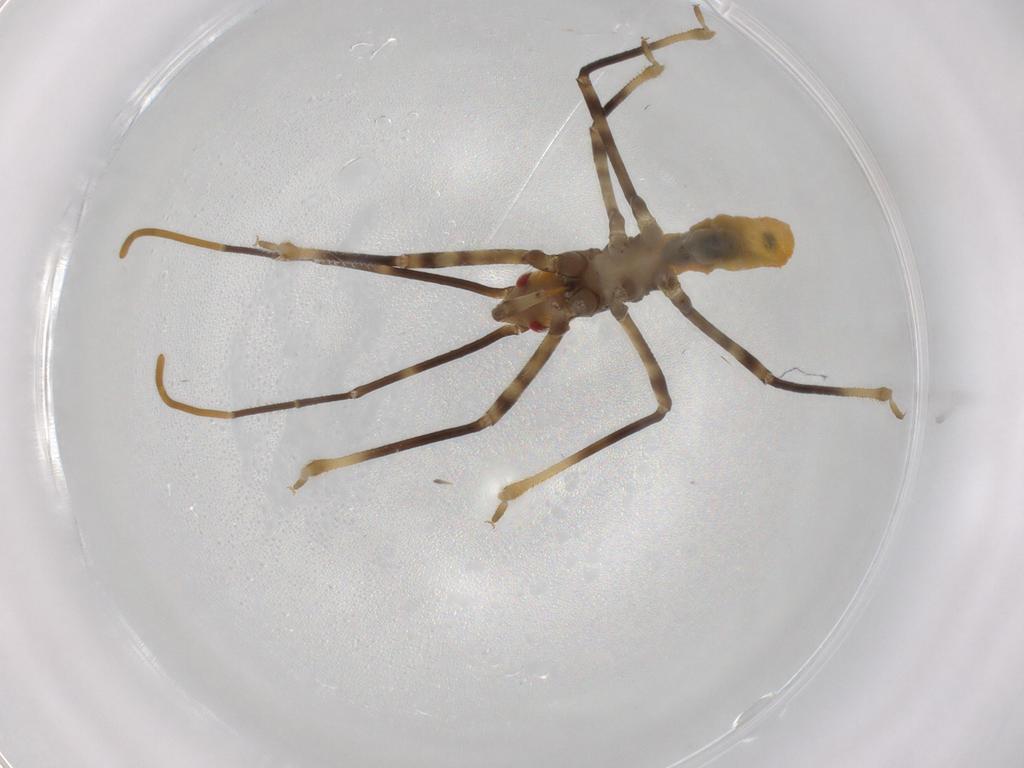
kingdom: Animalia
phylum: Arthropoda
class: Insecta
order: Hemiptera
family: Reduviidae
